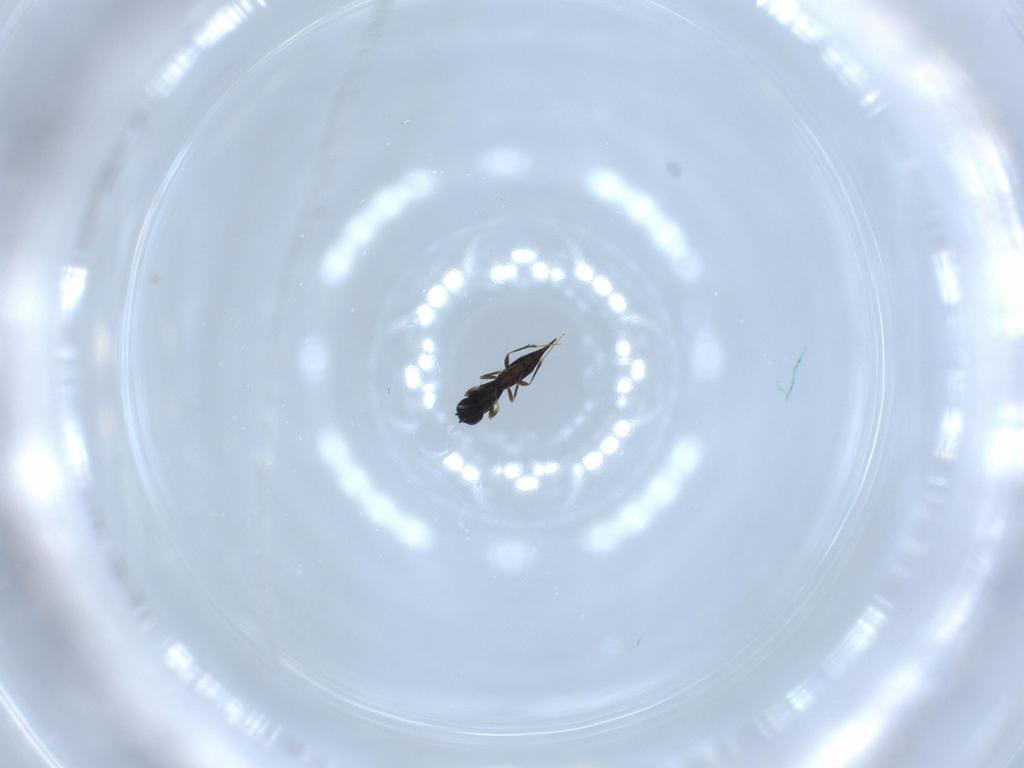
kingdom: Animalia
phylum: Arthropoda
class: Insecta
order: Hymenoptera
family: Scelionidae
